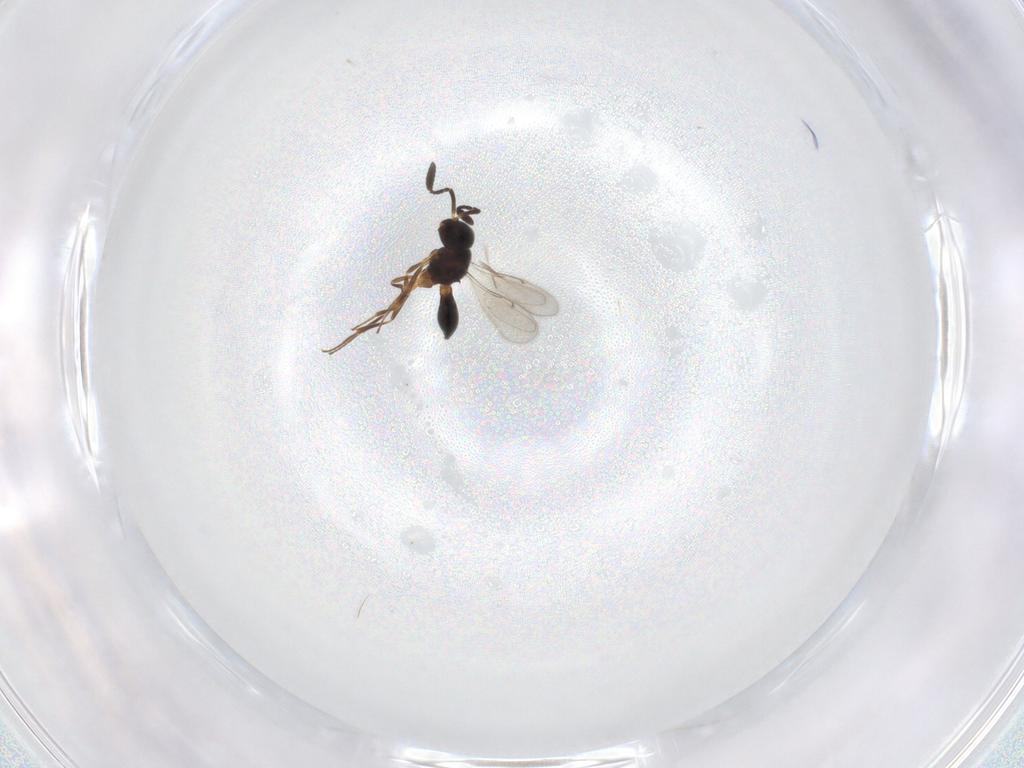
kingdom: Animalia
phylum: Arthropoda
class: Insecta
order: Hymenoptera
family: Scelionidae
